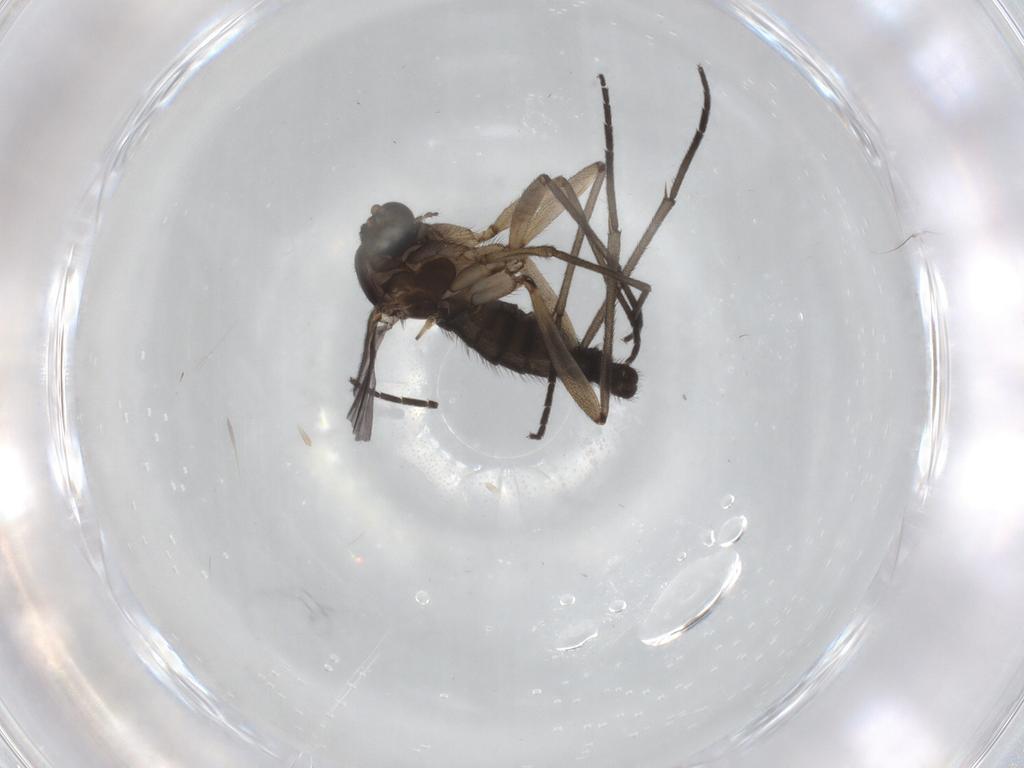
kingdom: Animalia
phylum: Arthropoda
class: Insecta
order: Diptera
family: Sciaridae
